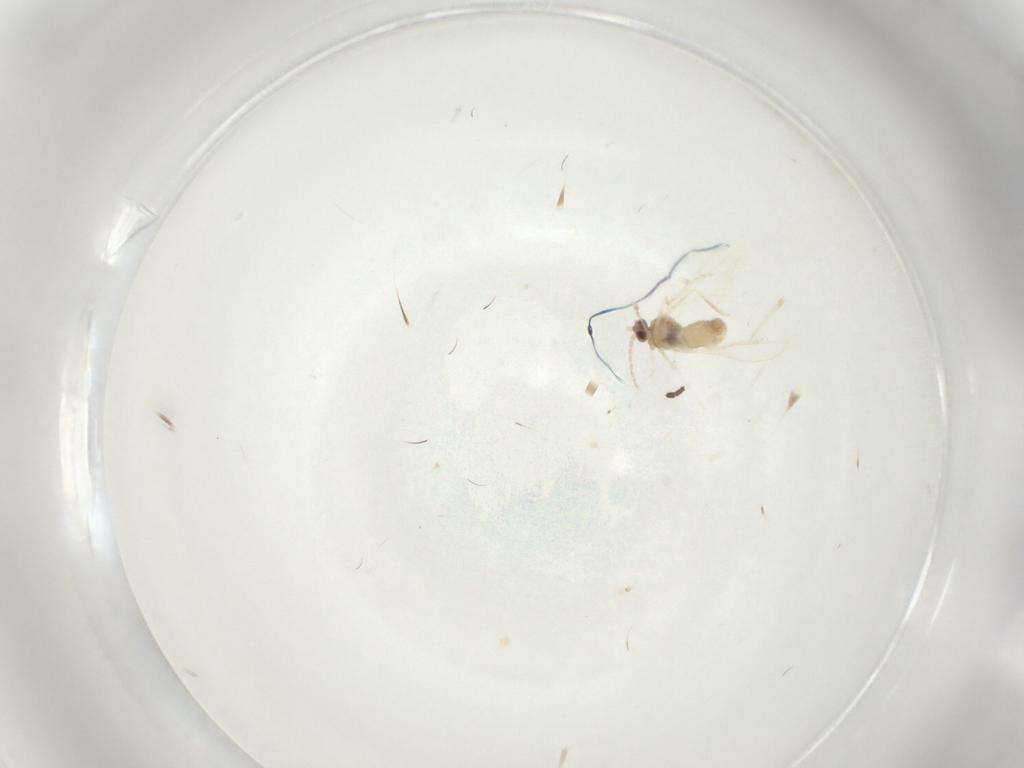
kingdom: Animalia
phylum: Arthropoda
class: Insecta
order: Diptera
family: Cecidomyiidae
